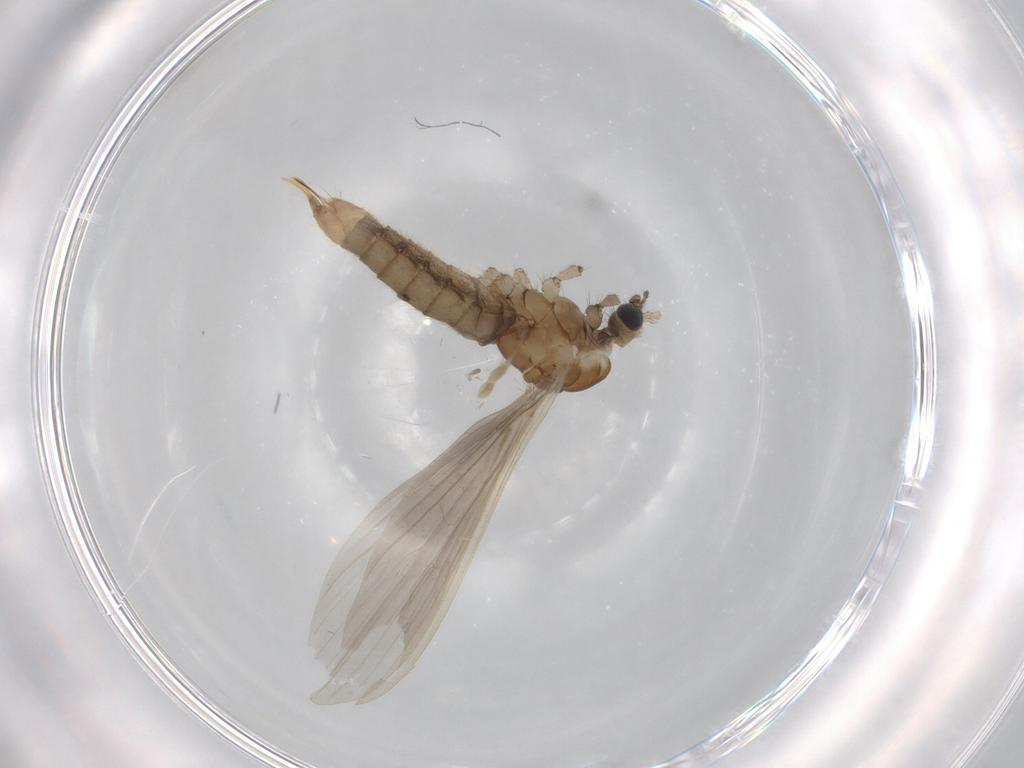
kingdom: Animalia
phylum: Arthropoda
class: Insecta
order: Diptera
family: Limoniidae
